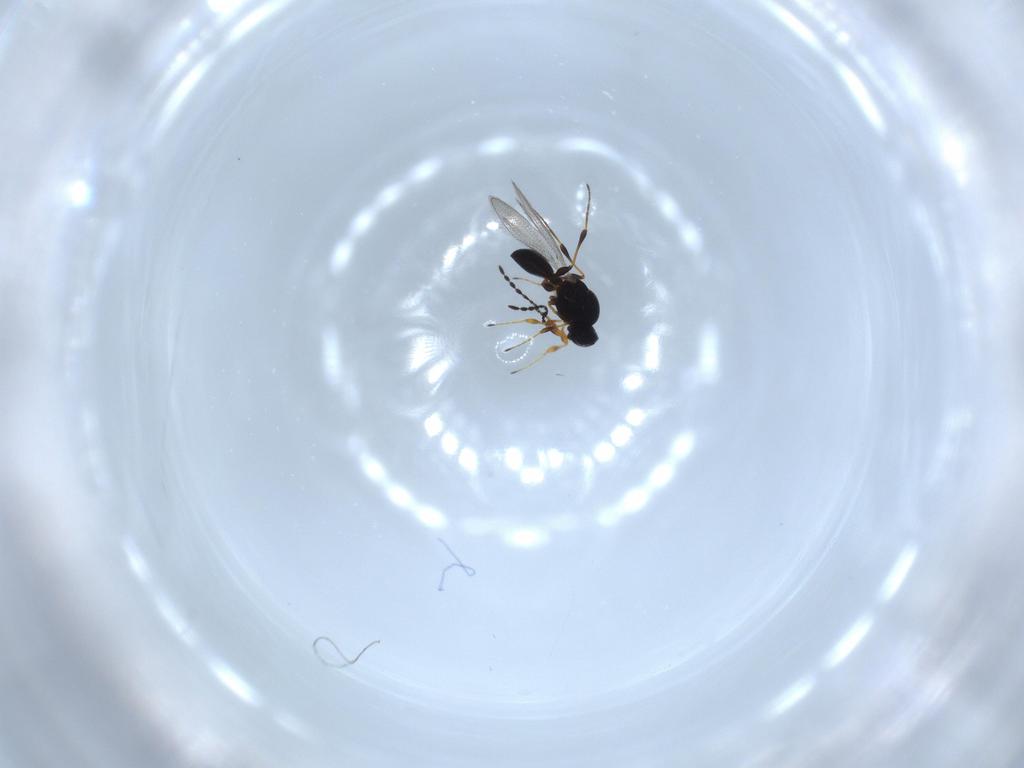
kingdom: Animalia
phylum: Arthropoda
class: Insecta
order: Hymenoptera
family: Platygastridae
